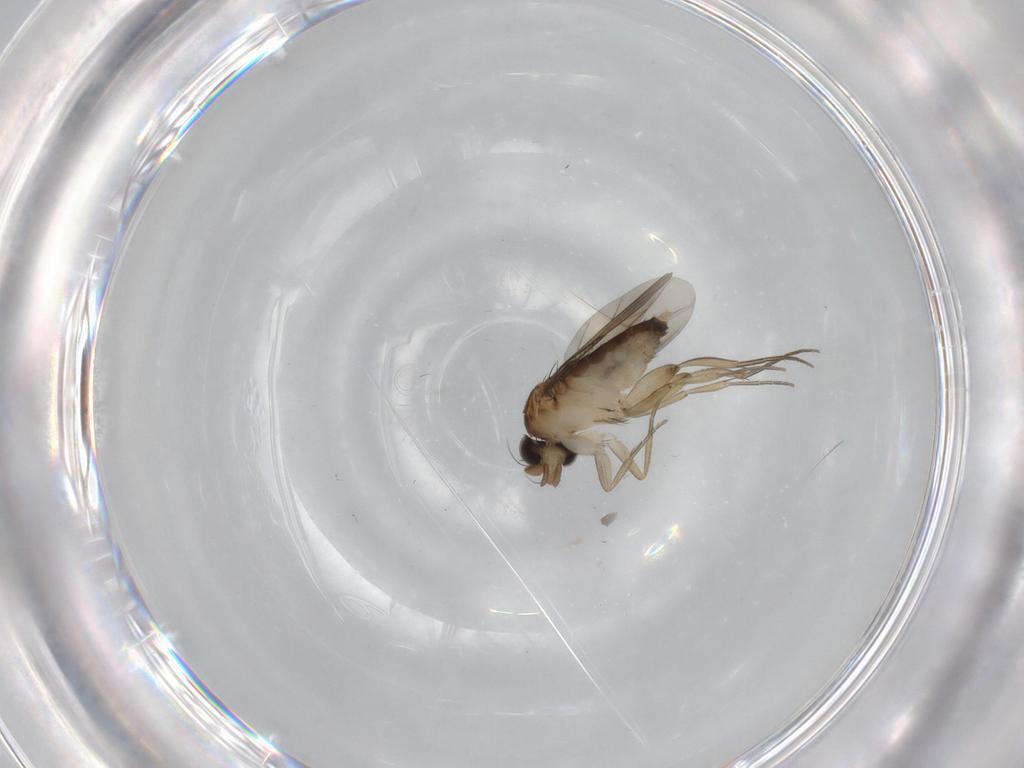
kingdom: Animalia
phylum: Arthropoda
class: Insecta
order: Diptera
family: Phoridae
